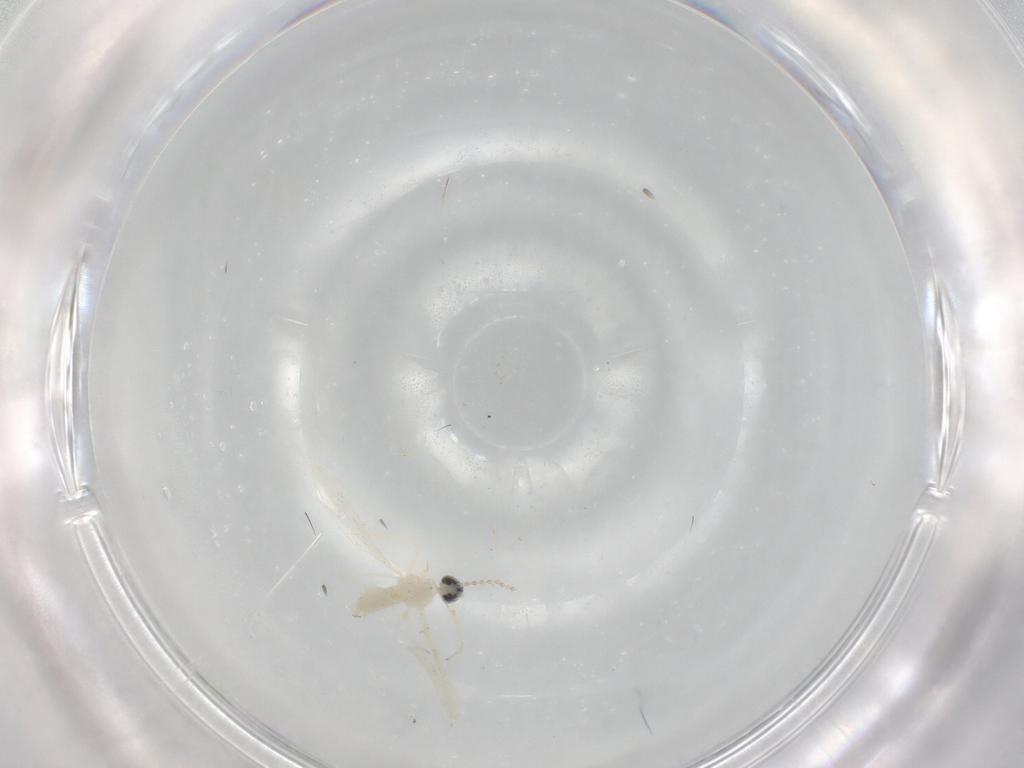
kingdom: Animalia
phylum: Arthropoda
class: Insecta
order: Diptera
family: Cecidomyiidae
